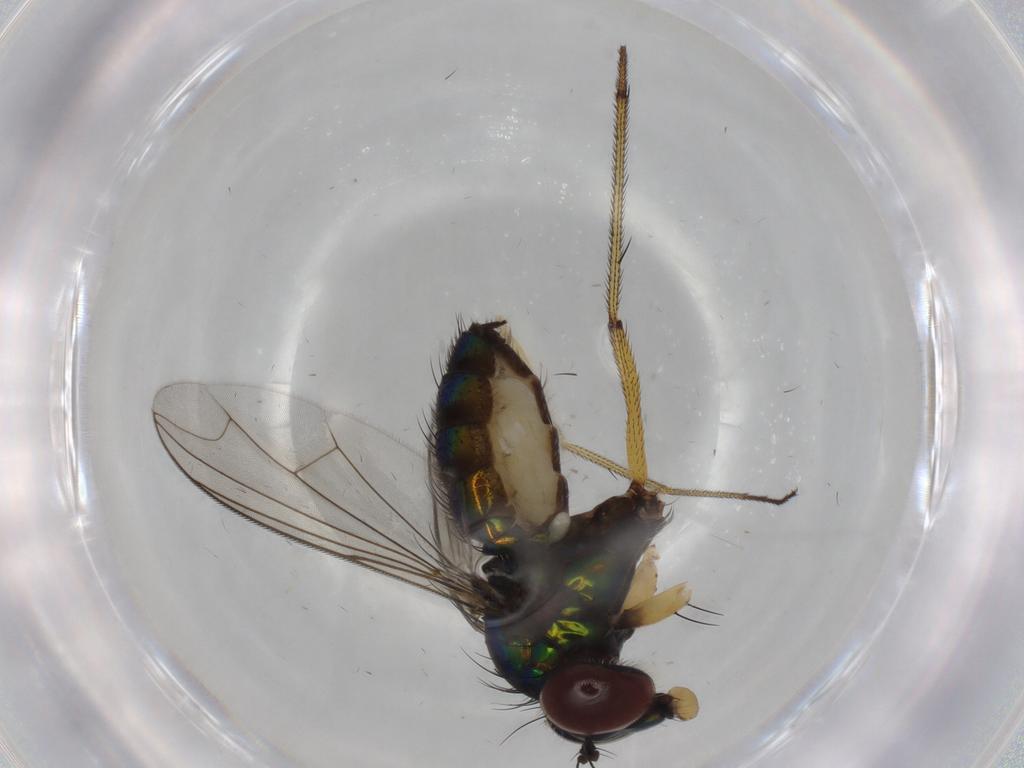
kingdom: Animalia
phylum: Arthropoda
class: Insecta
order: Diptera
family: Dolichopodidae
